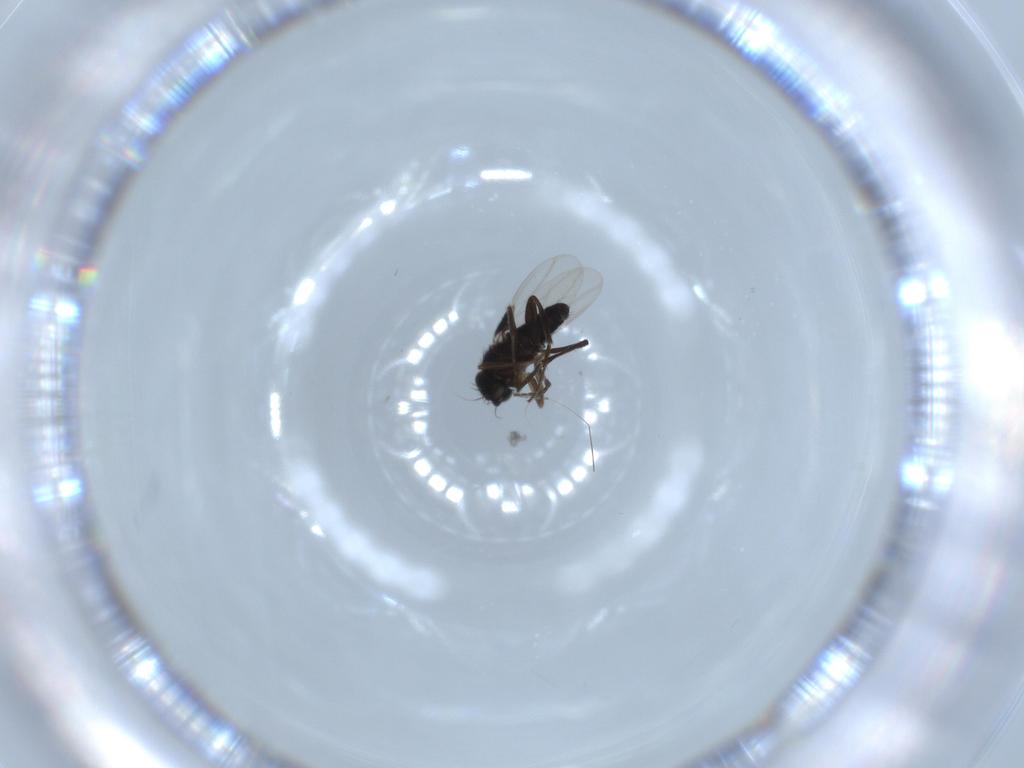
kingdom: Animalia
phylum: Arthropoda
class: Insecta
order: Diptera
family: Phoridae
